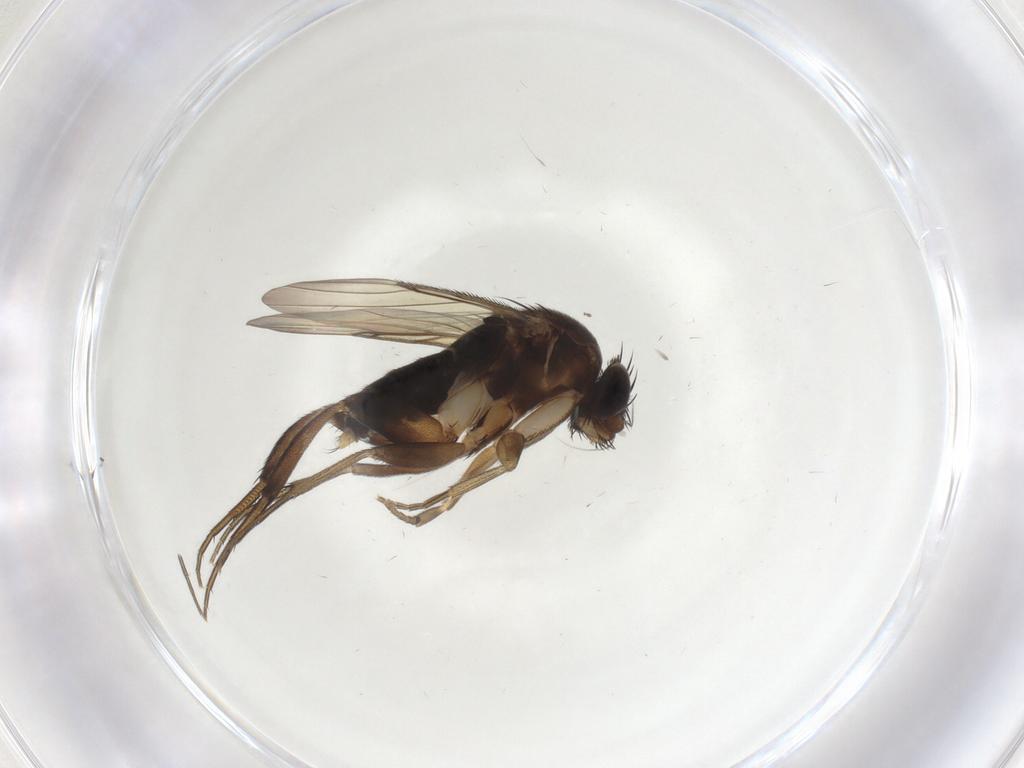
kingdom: Animalia
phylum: Arthropoda
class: Insecta
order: Diptera
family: Phoridae
